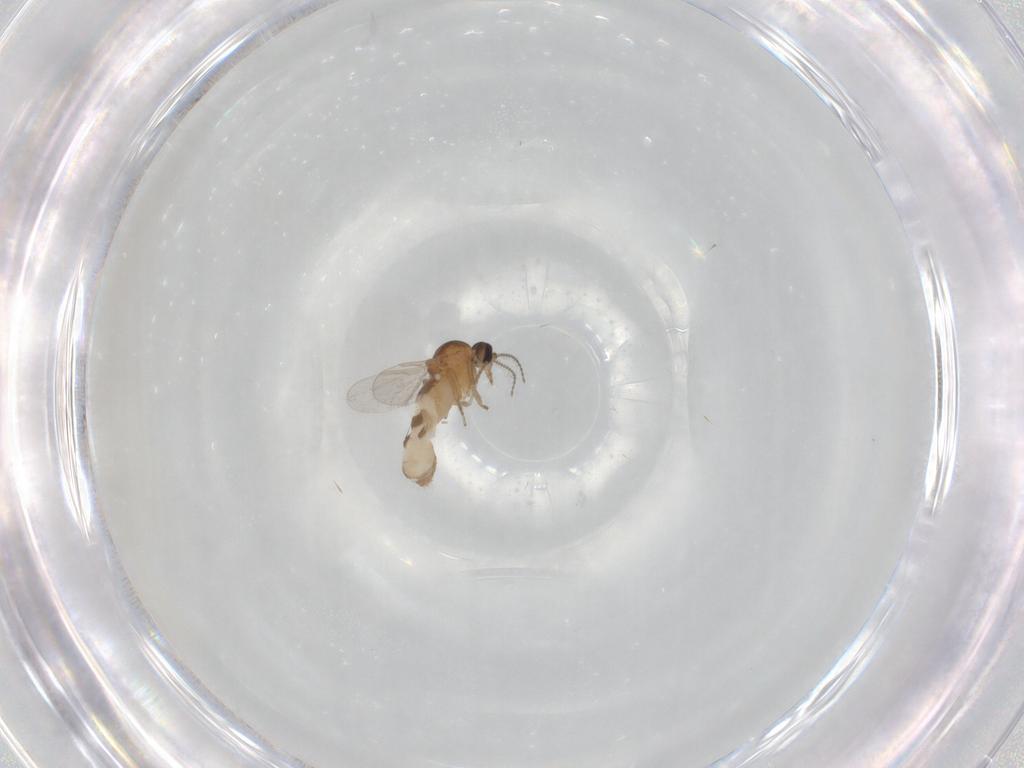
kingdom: Animalia
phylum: Arthropoda
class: Insecta
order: Diptera
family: Ceratopogonidae
